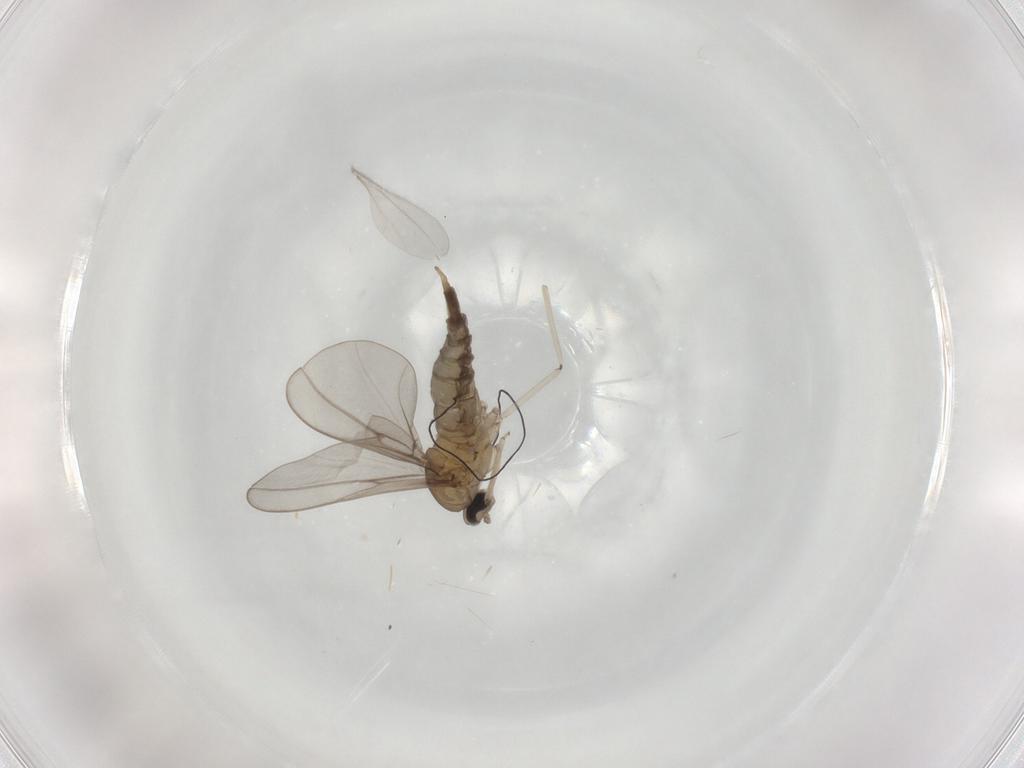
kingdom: Animalia
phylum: Arthropoda
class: Insecta
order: Diptera
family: Cecidomyiidae
